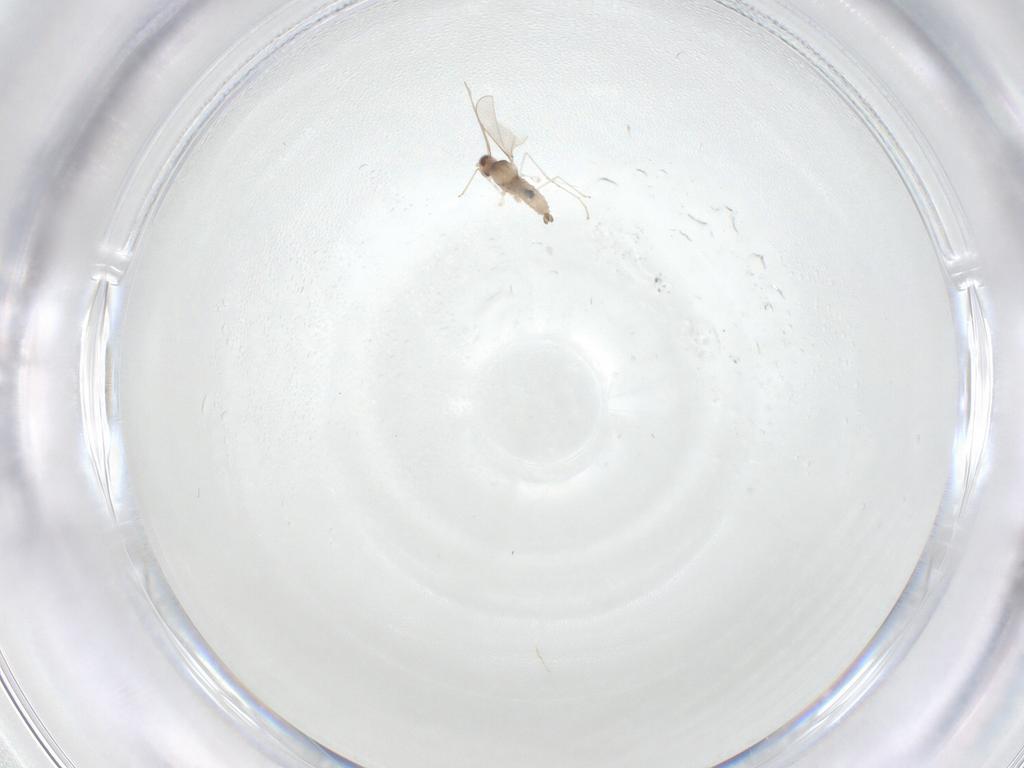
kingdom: Animalia
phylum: Arthropoda
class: Insecta
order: Diptera
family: Cecidomyiidae
